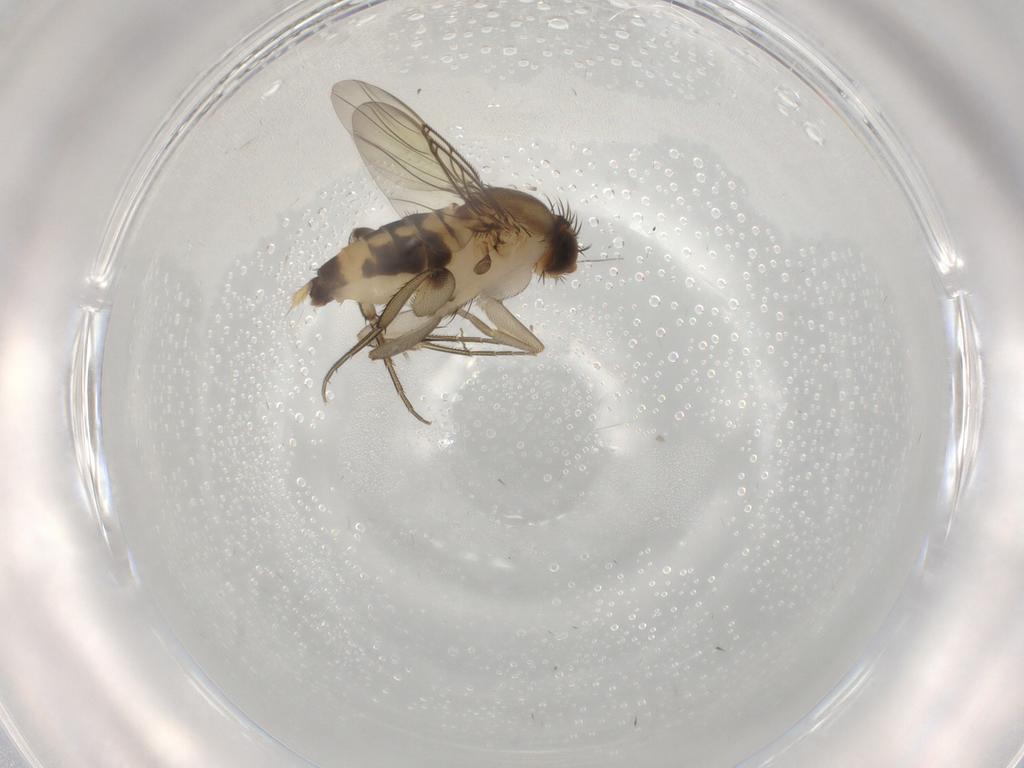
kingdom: Animalia
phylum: Arthropoda
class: Insecta
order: Diptera
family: Phoridae
